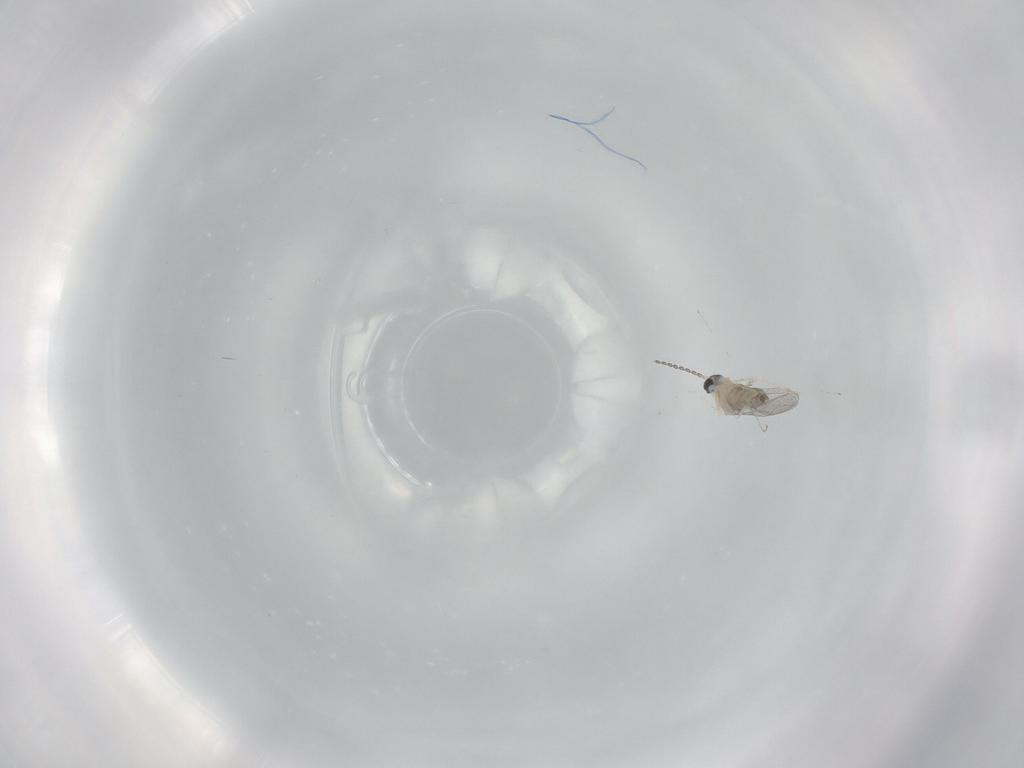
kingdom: Animalia
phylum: Arthropoda
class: Insecta
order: Diptera
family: Cecidomyiidae
